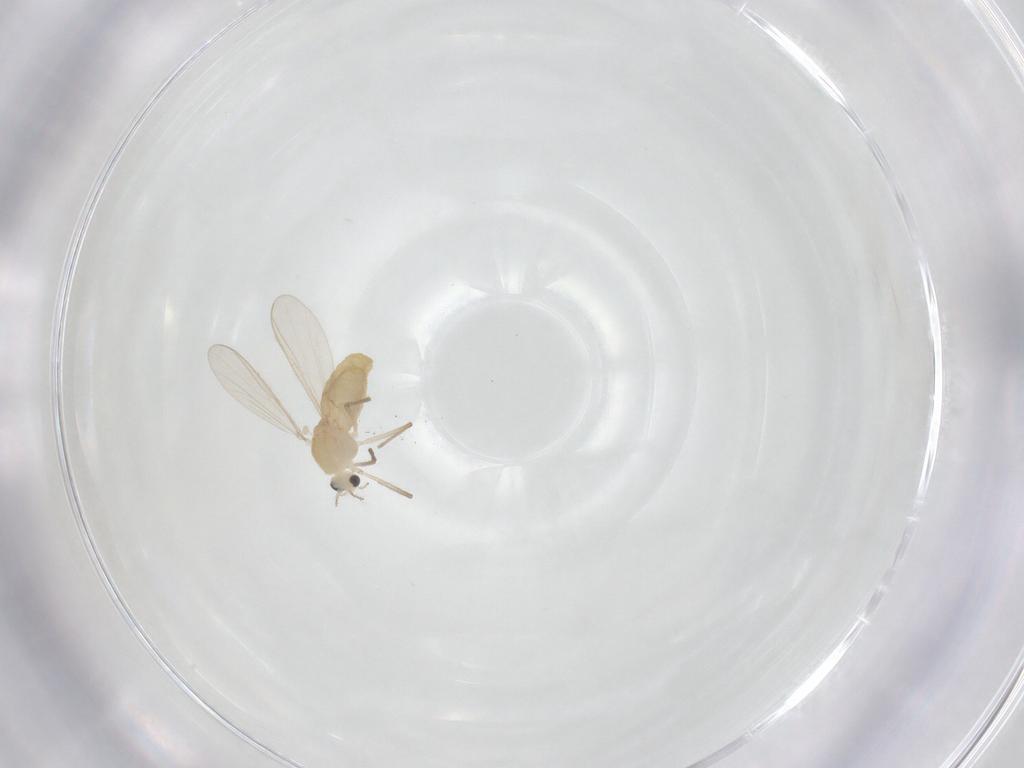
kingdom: Animalia
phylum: Arthropoda
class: Insecta
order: Diptera
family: Chironomidae
